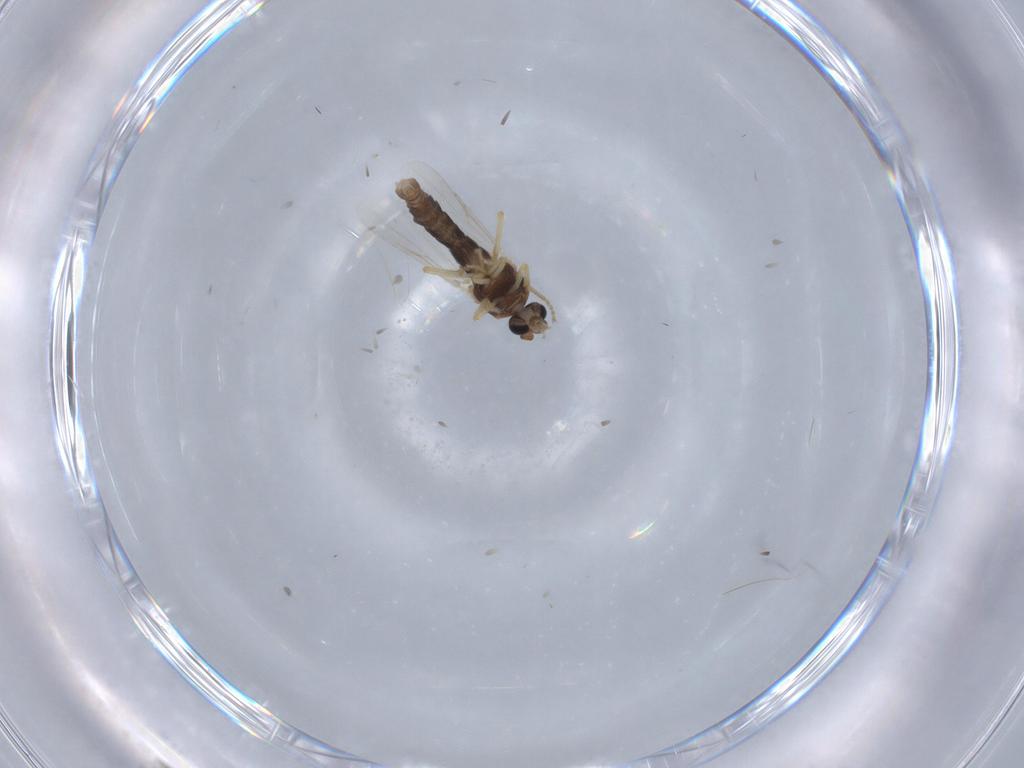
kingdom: Animalia
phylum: Arthropoda
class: Insecta
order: Diptera
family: Ceratopogonidae
